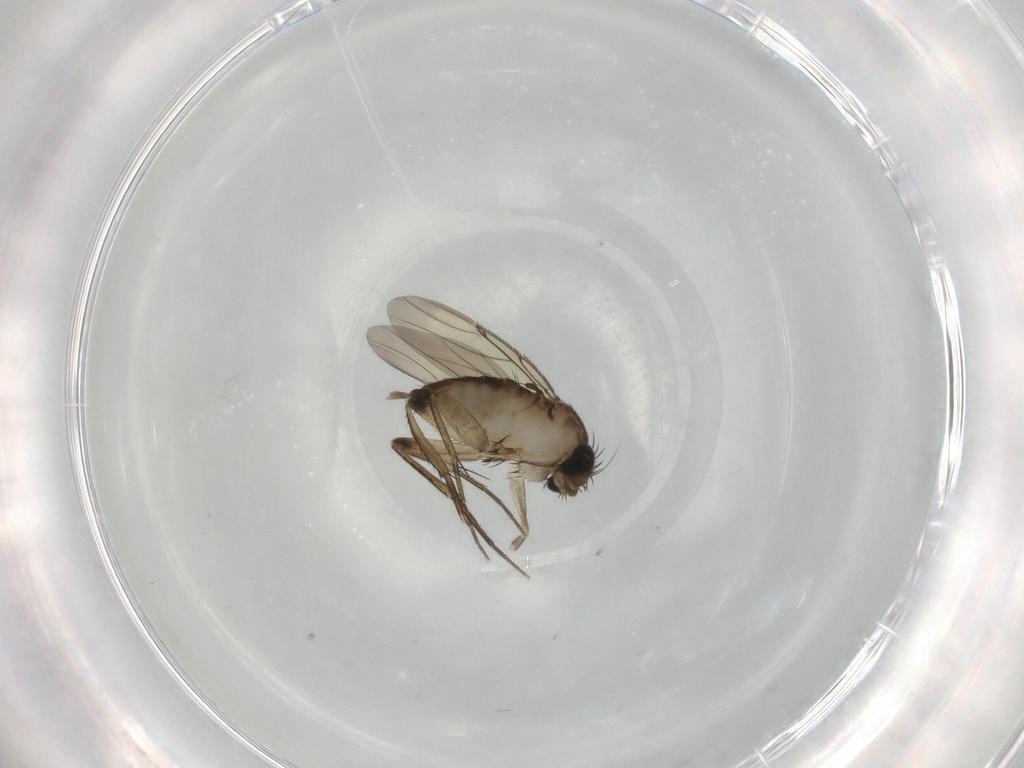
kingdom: Animalia
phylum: Arthropoda
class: Insecta
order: Diptera
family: Phoridae
